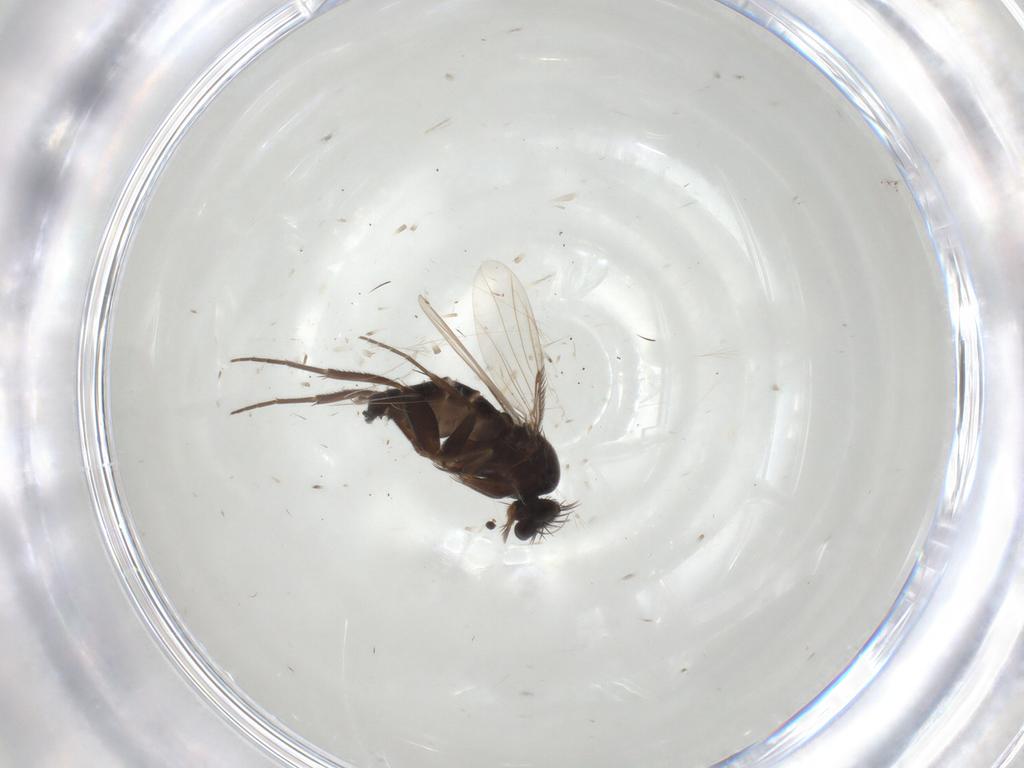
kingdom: Animalia
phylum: Arthropoda
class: Insecta
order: Diptera
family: Phoridae
